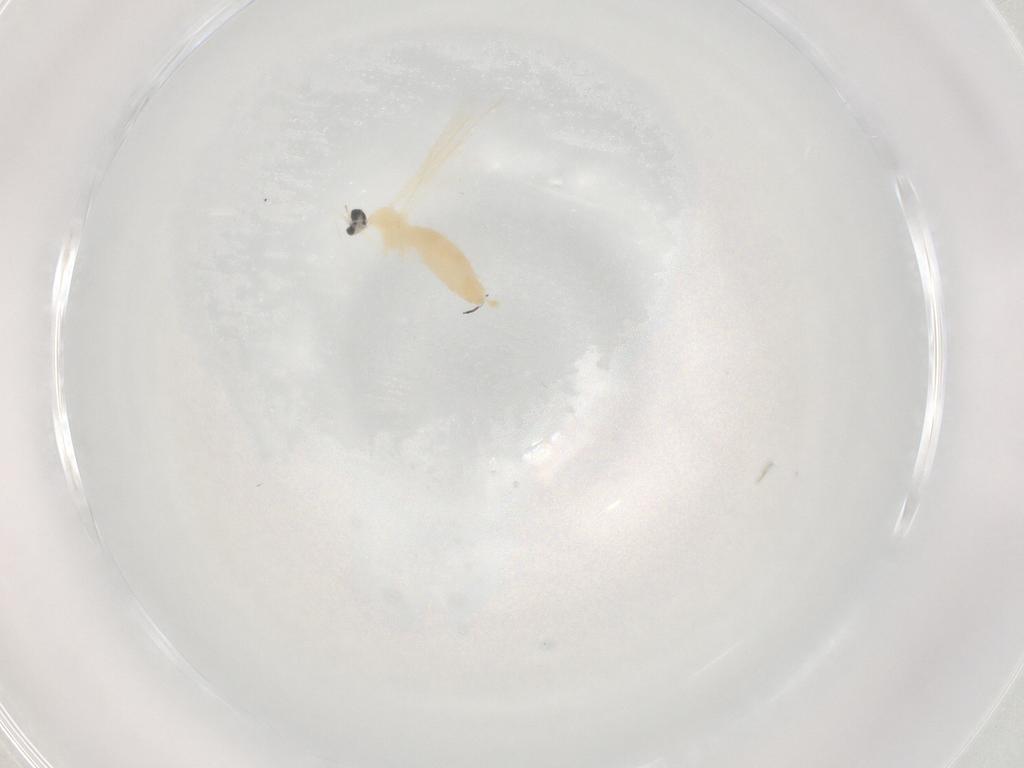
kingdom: Animalia
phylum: Arthropoda
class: Insecta
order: Diptera
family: Cecidomyiidae
